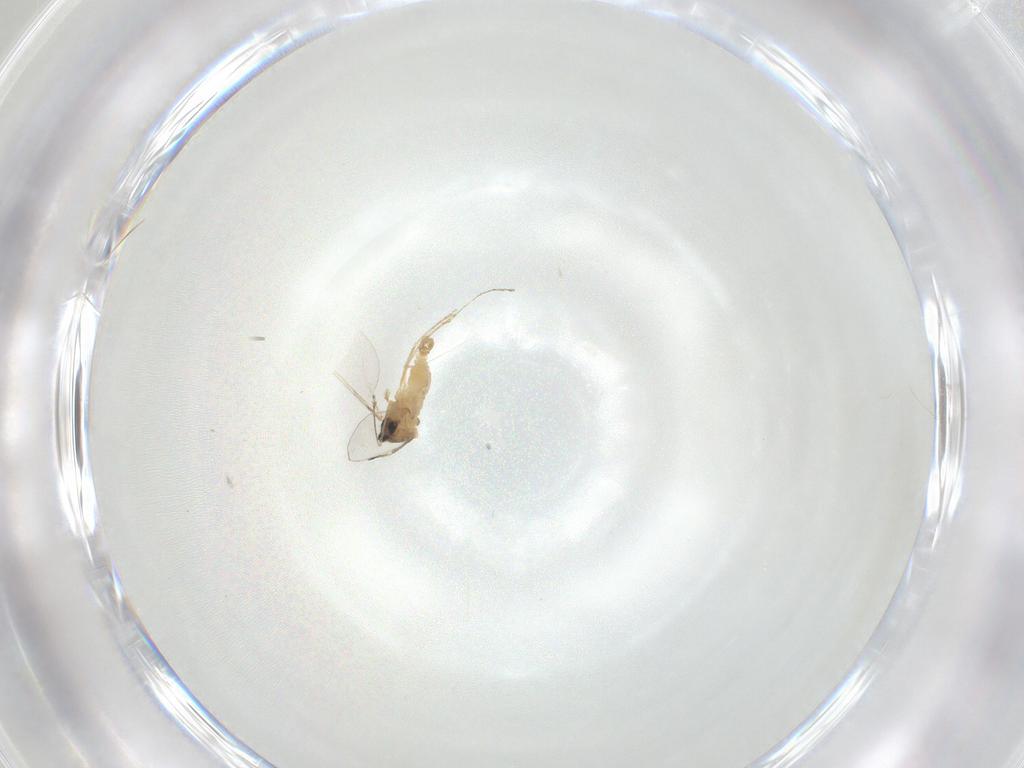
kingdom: Animalia
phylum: Arthropoda
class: Insecta
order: Diptera
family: Cecidomyiidae
